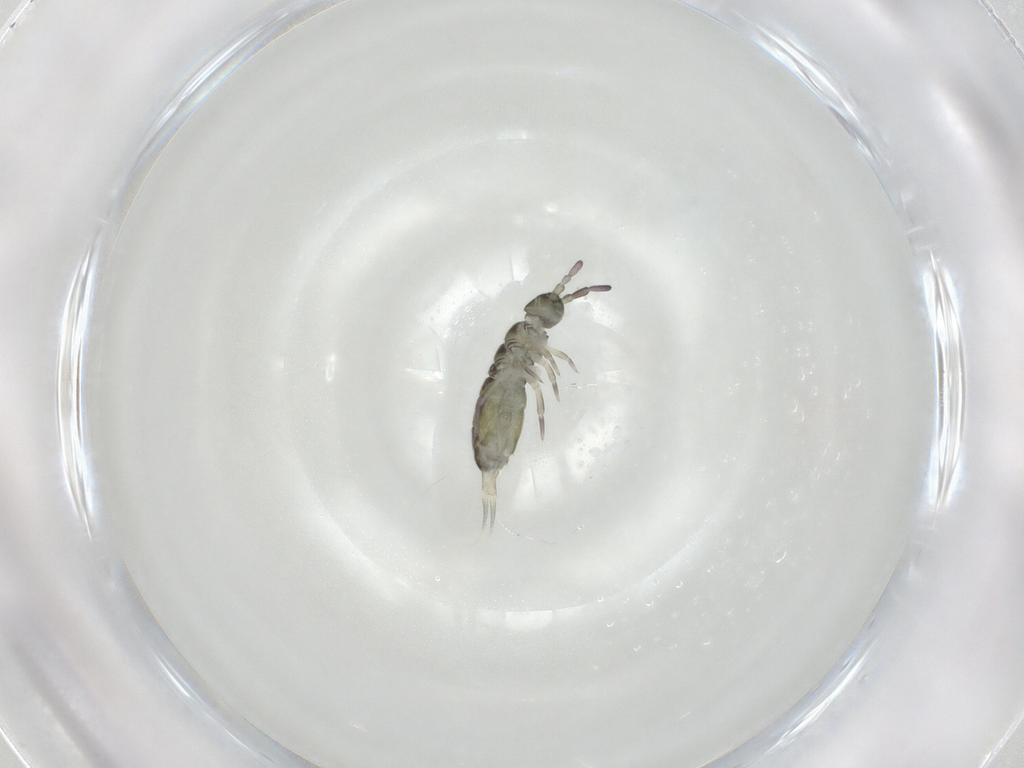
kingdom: Animalia
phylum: Arthropoda
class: Collembola
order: Entomobryomorpha
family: Isotomidae
